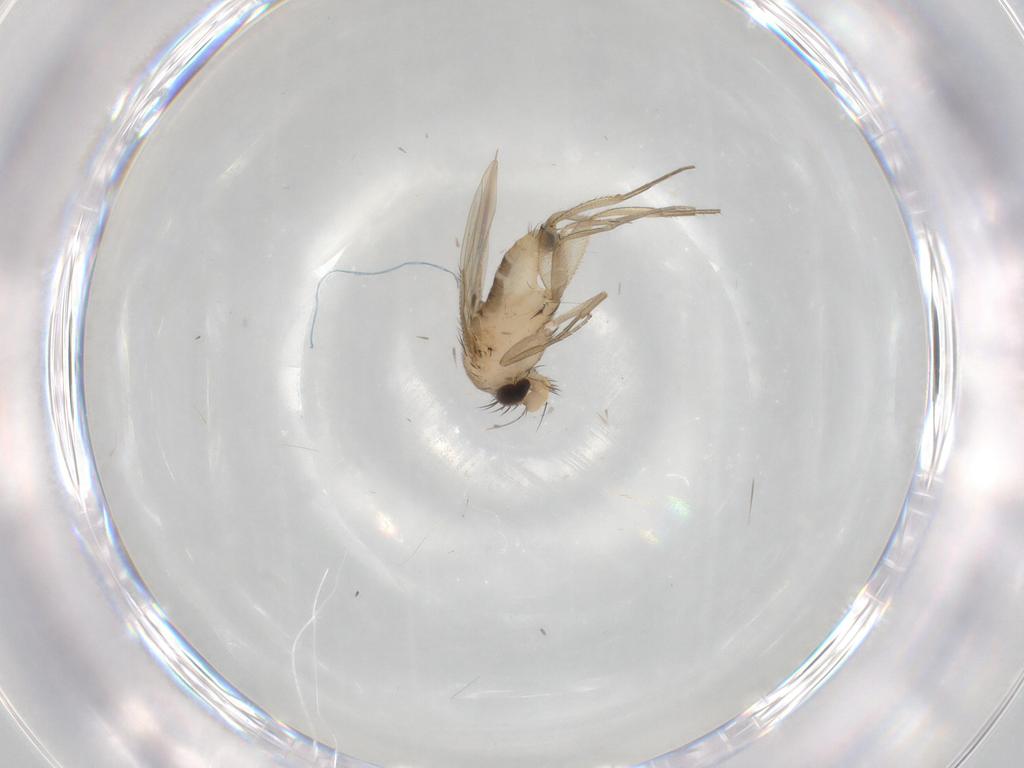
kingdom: Animalia
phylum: Arthropoda
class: Insecta
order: Diptera
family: Phoridae
